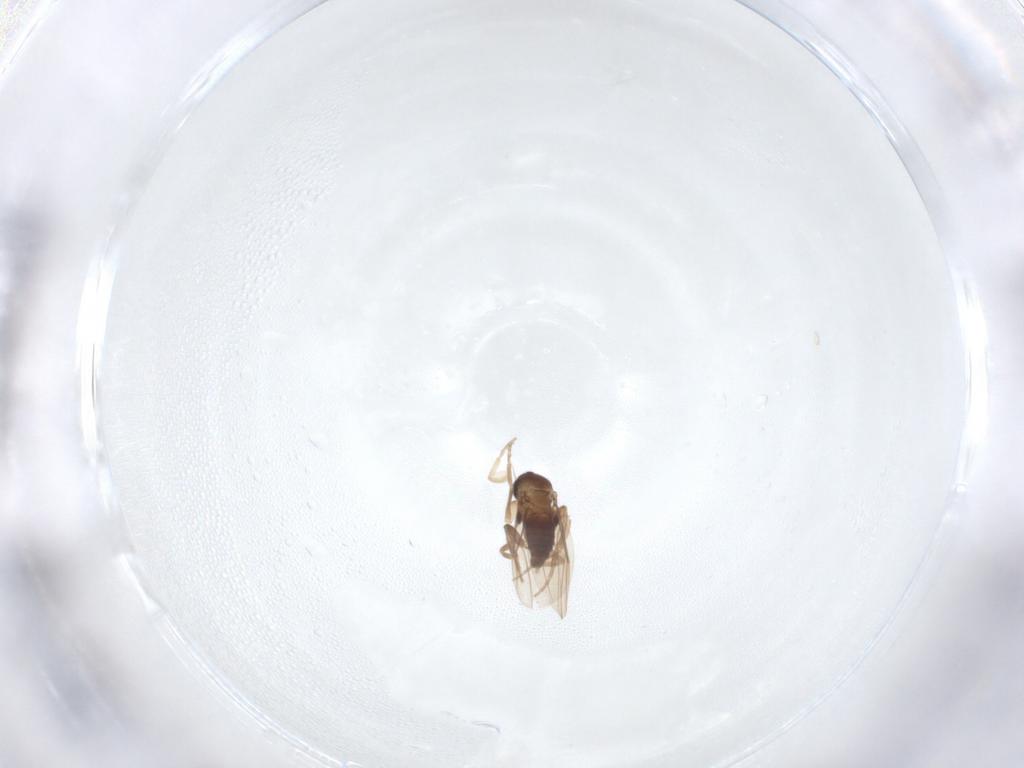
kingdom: Animalia
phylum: Arthropoda
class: Insecta
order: Diptera
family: Phoridae
